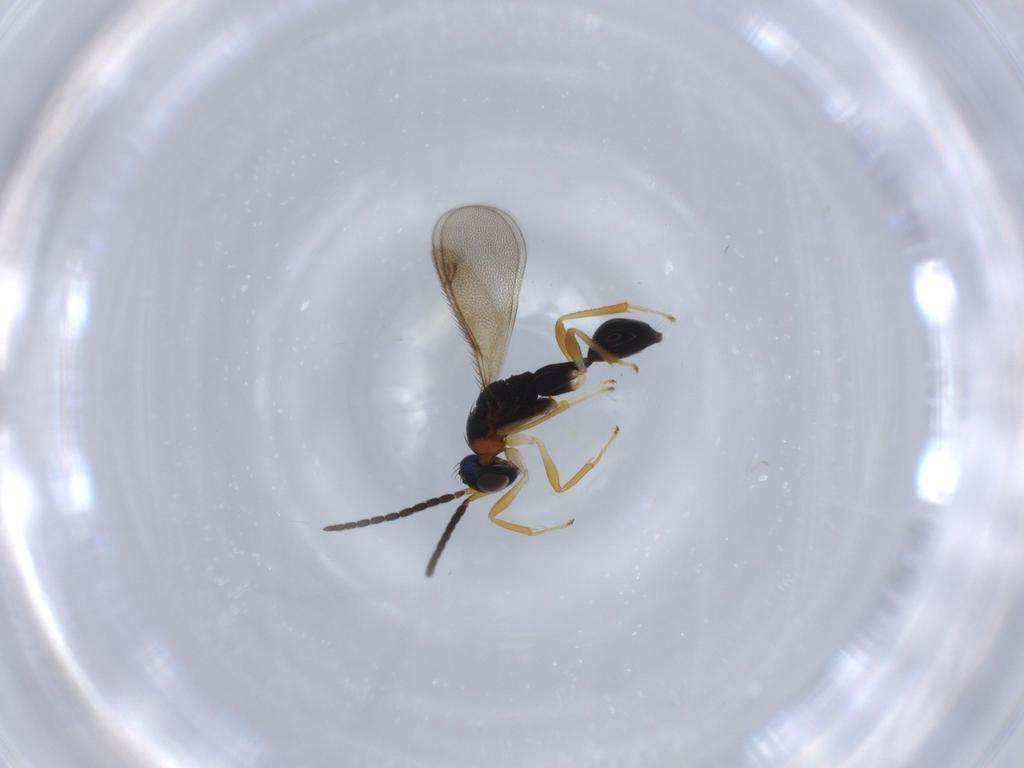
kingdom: Animalia
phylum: Arthropoda
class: Insecta
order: Hymenoptera
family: Diparidae
